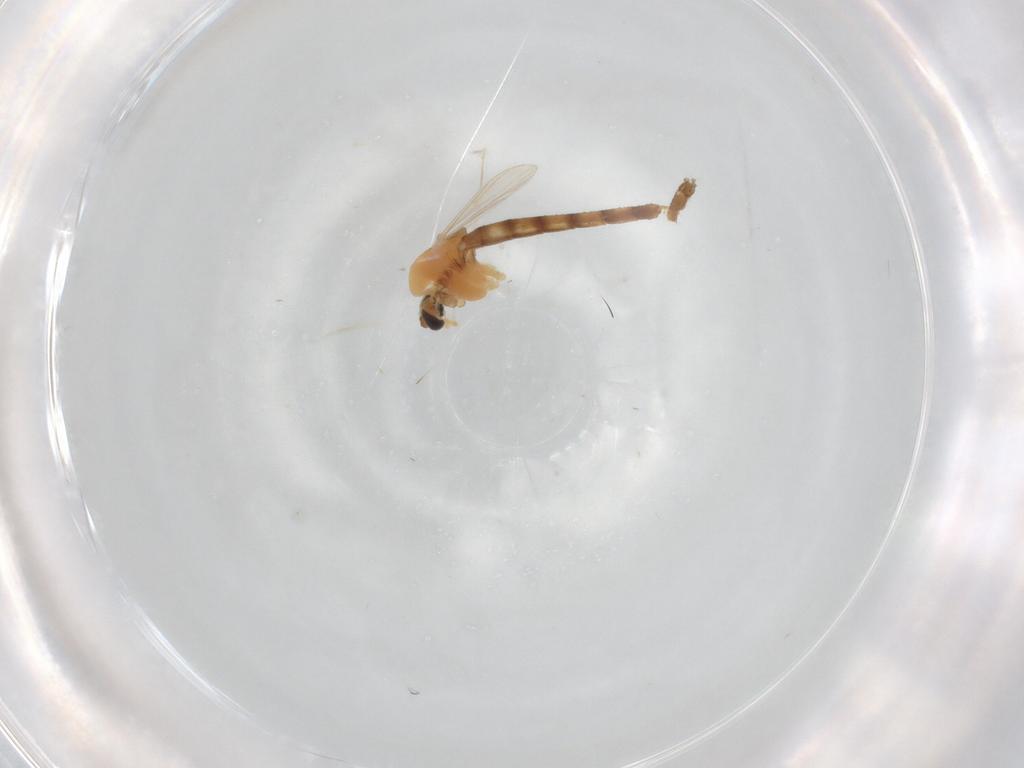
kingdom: Animalia
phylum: Arthropoda
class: Insecta
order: Diptera
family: Chironomidae
